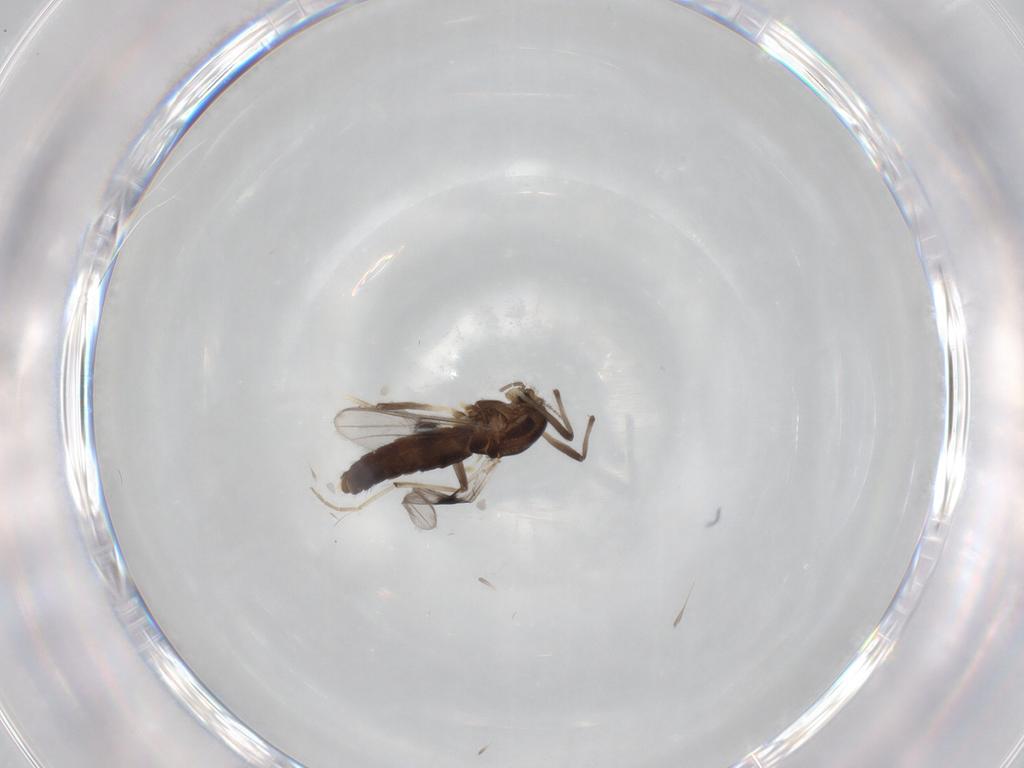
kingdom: Animalia
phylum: Arthropoda
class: Insecta
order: Diptera
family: Chironomidae
